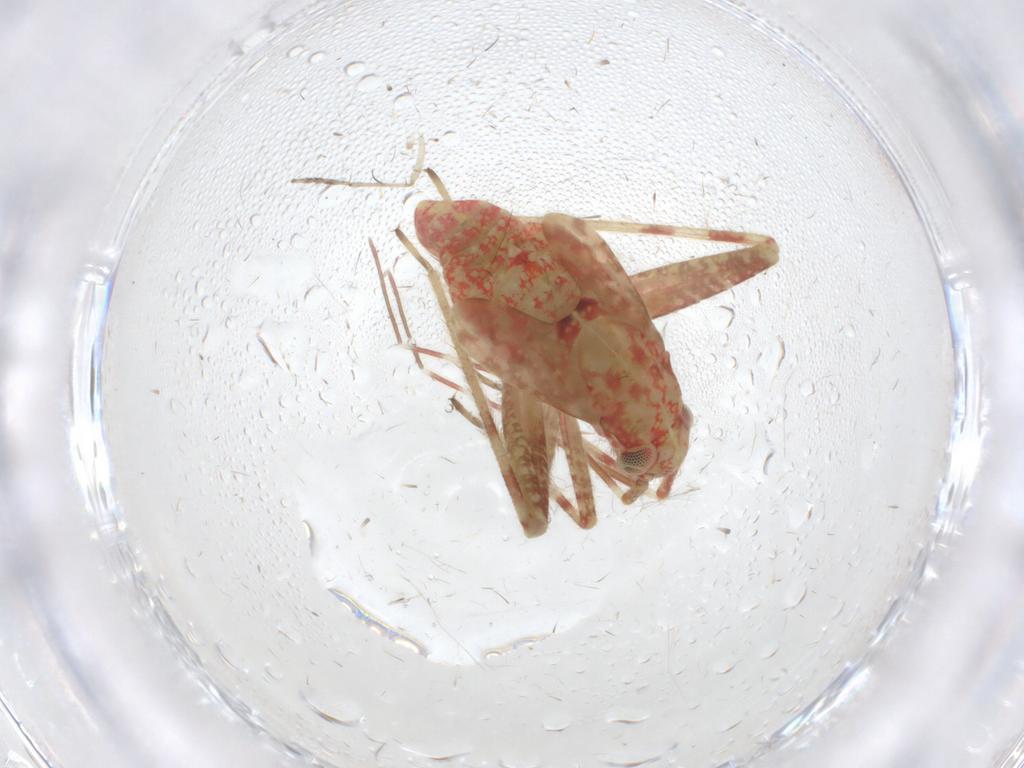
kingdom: Animalia
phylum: Arthropoda
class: Insecta
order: Hemiptera
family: Miridae
